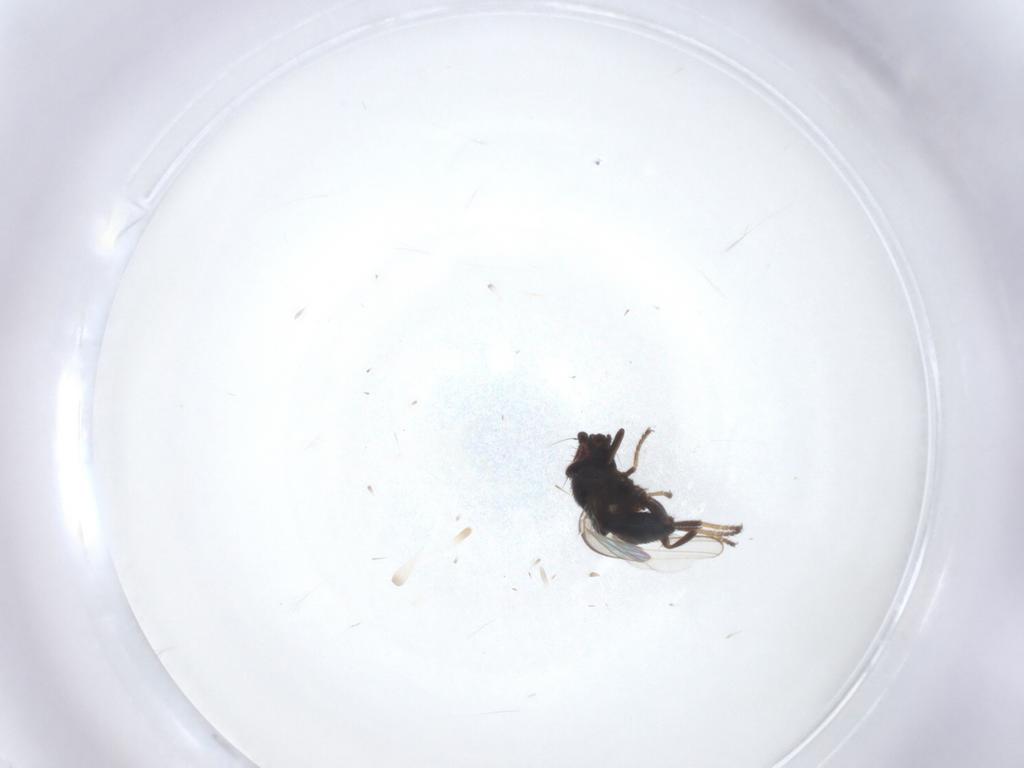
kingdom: Animalia
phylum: Arthropoda
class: Insecta
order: Diptera
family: Milichiidae
